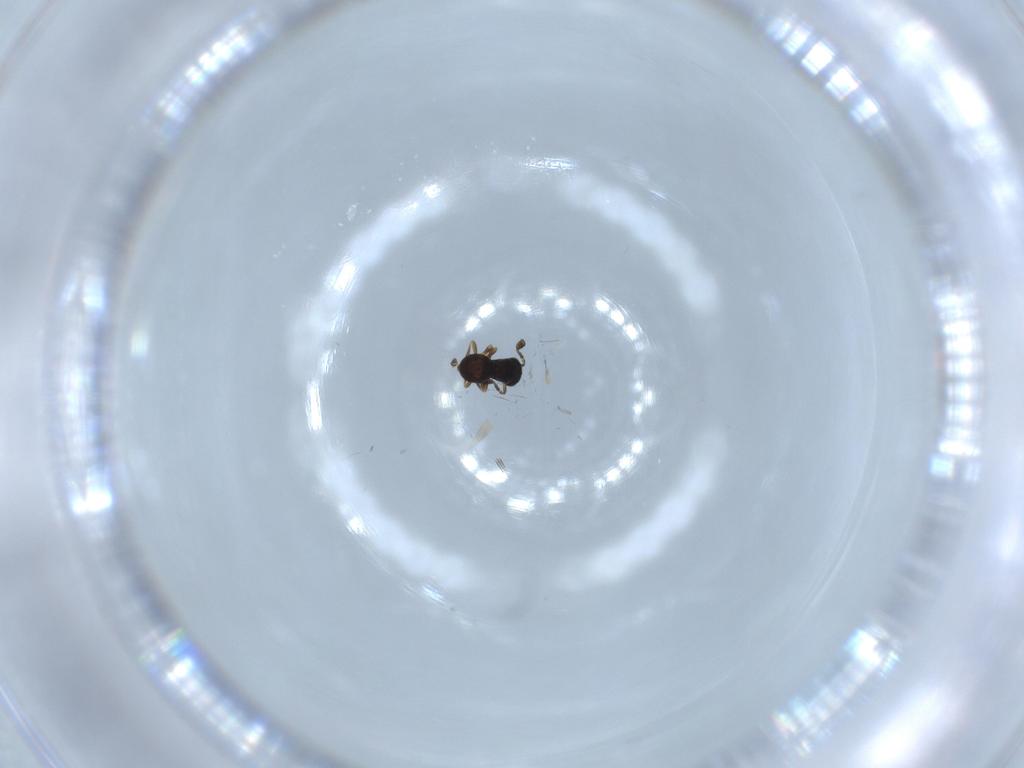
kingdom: Animalia
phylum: Arthropoda
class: Insecta
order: Hymenoptera
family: Scelionidae
